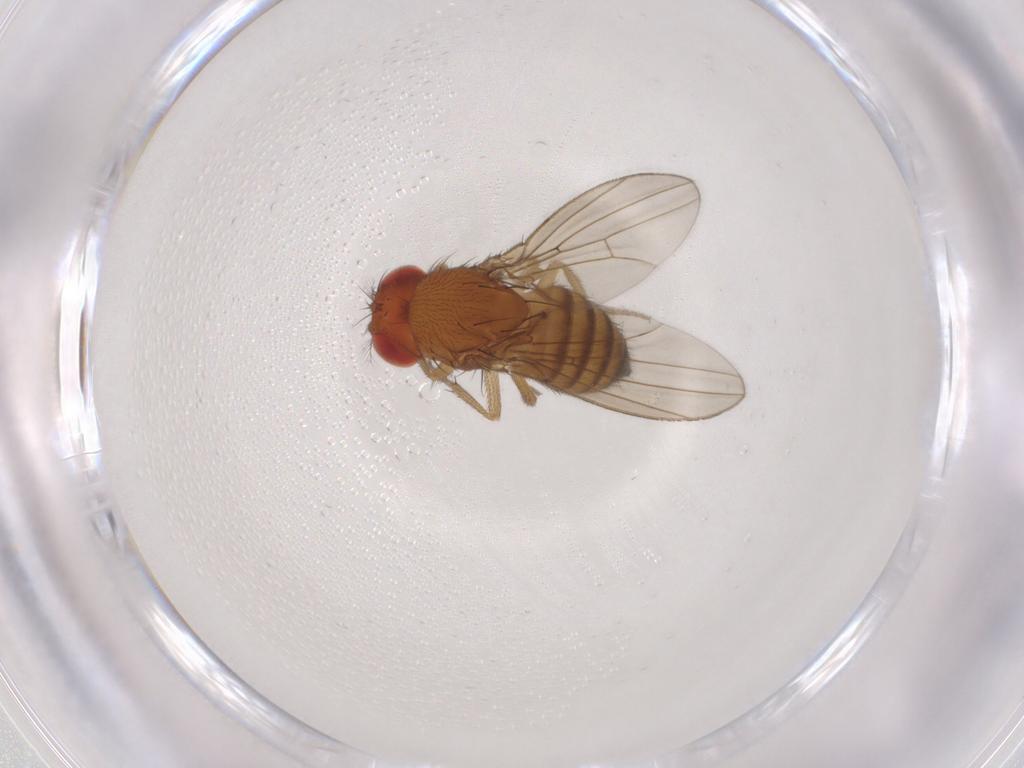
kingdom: Animalia
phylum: Arthropoda
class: Insecta
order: Diptera
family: Drosophilidae
